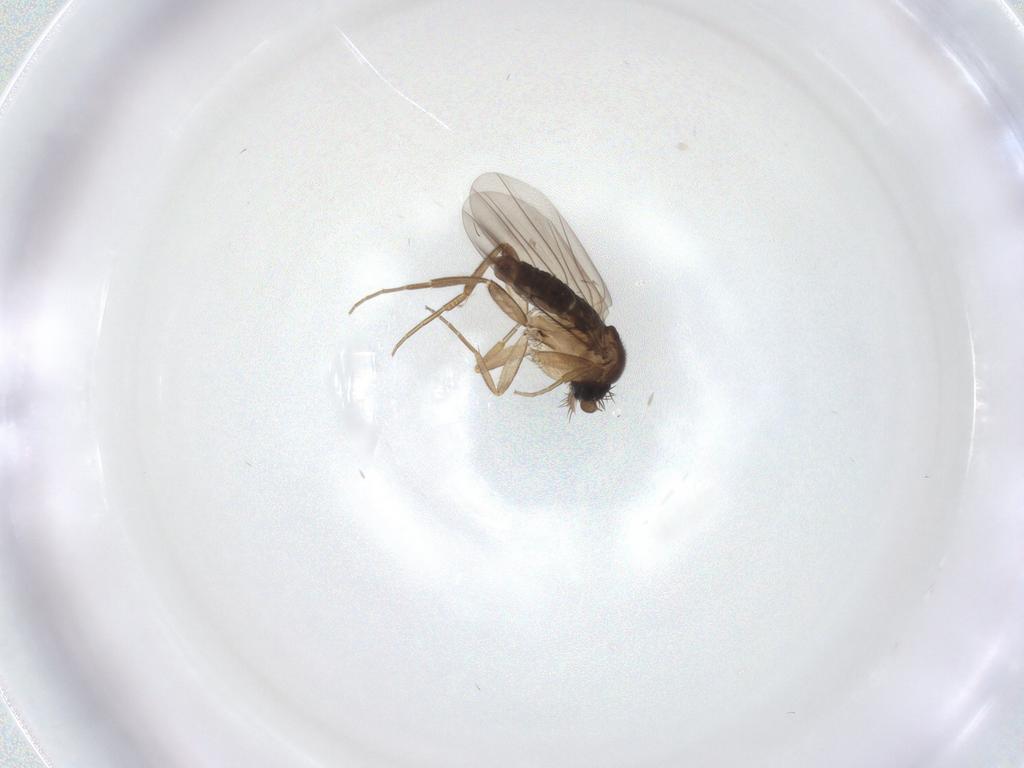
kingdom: Animalia
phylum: Arthropoda
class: Insecta
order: Diptera
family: Phoridae
